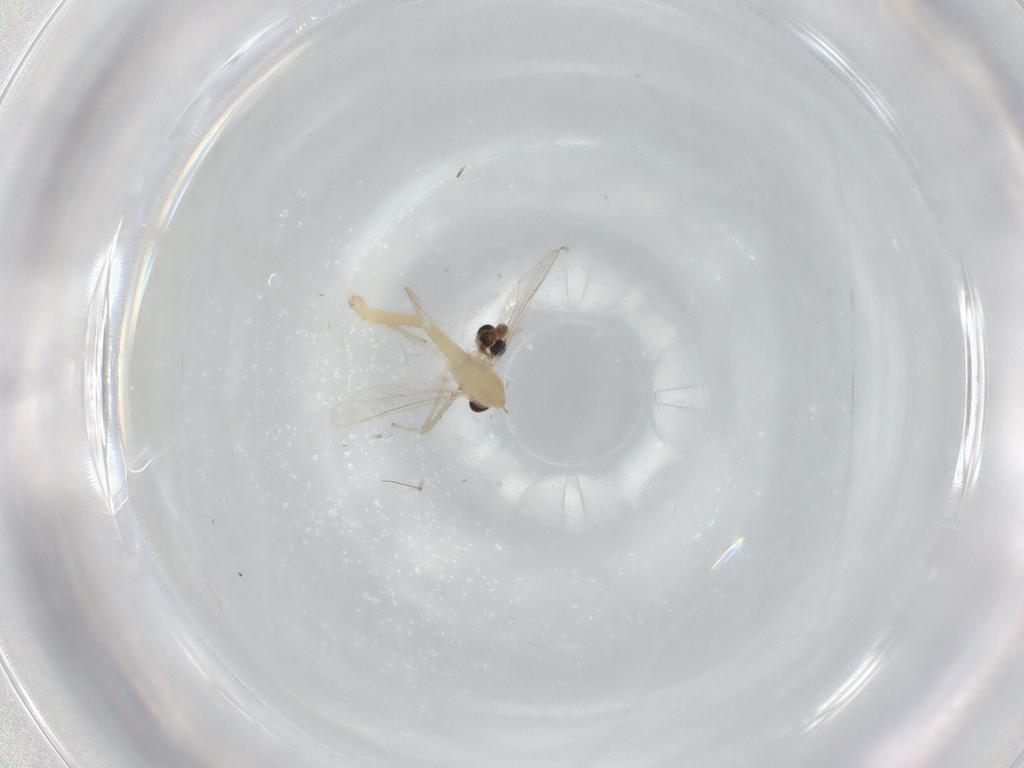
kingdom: Animalia
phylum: Arthropoda
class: Insecta
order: Diptera
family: Chironomidae
